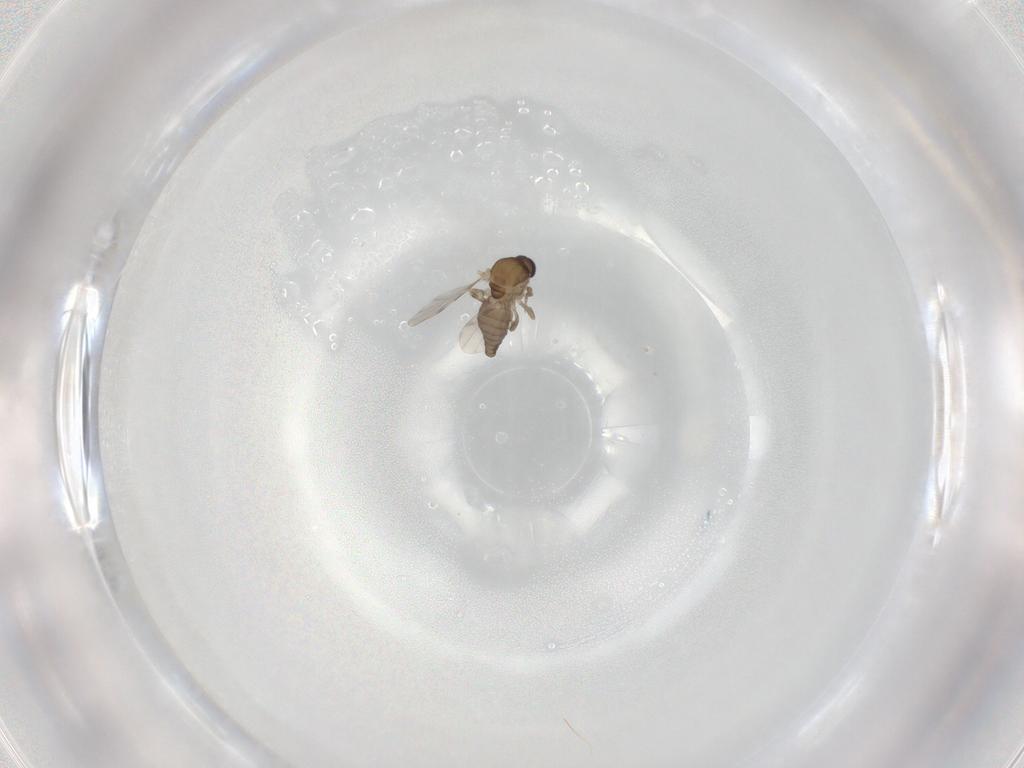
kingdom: Animalia
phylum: Arthropoda
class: Insecta
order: Diptera
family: Ceratopogonidae
